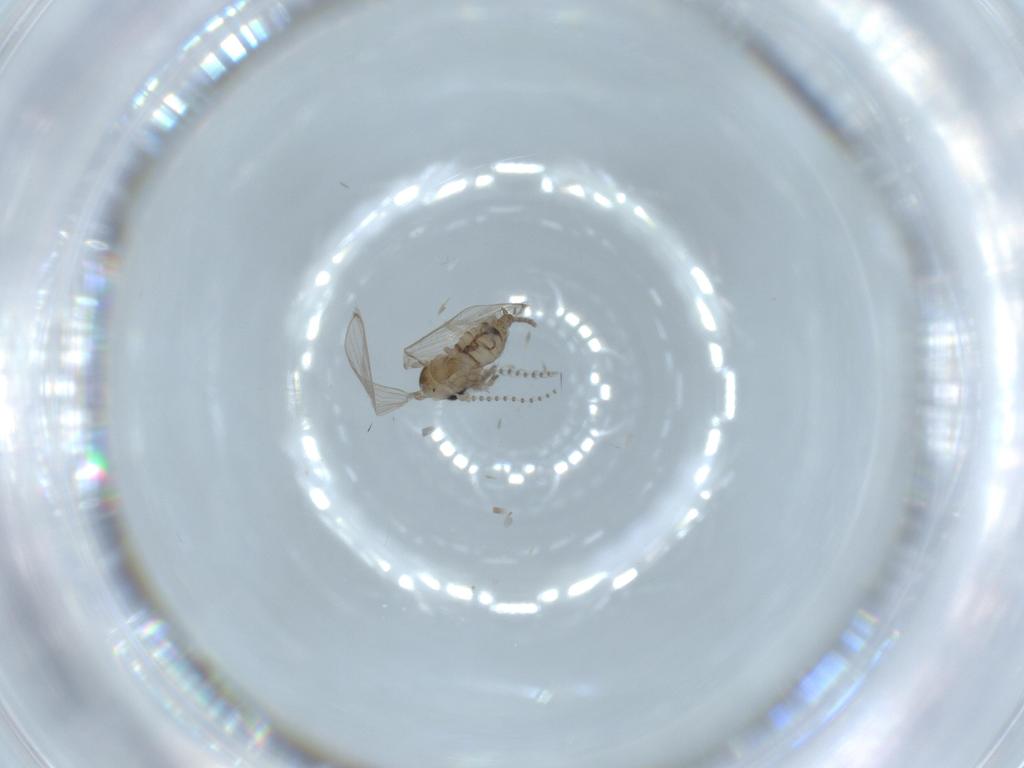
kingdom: Animalia
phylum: Arthropoda
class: Insecta
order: Diptera
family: Psychodidae
